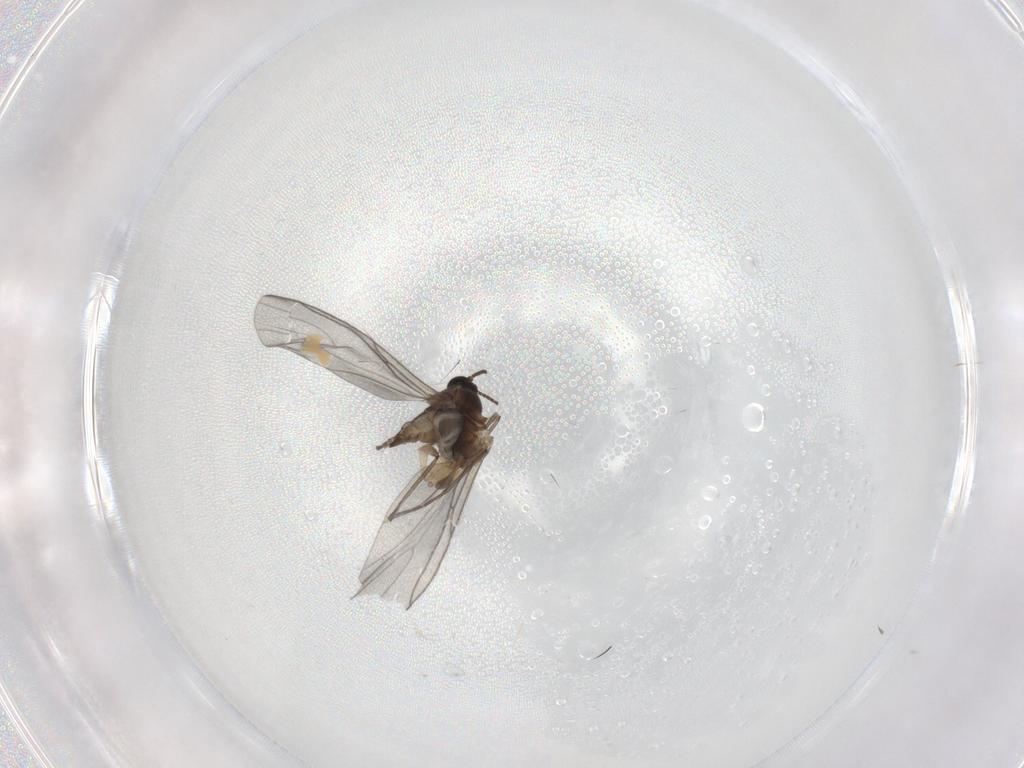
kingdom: Animalia
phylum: Arthropoda
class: Insecta
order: Diptera
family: Sciaridae
